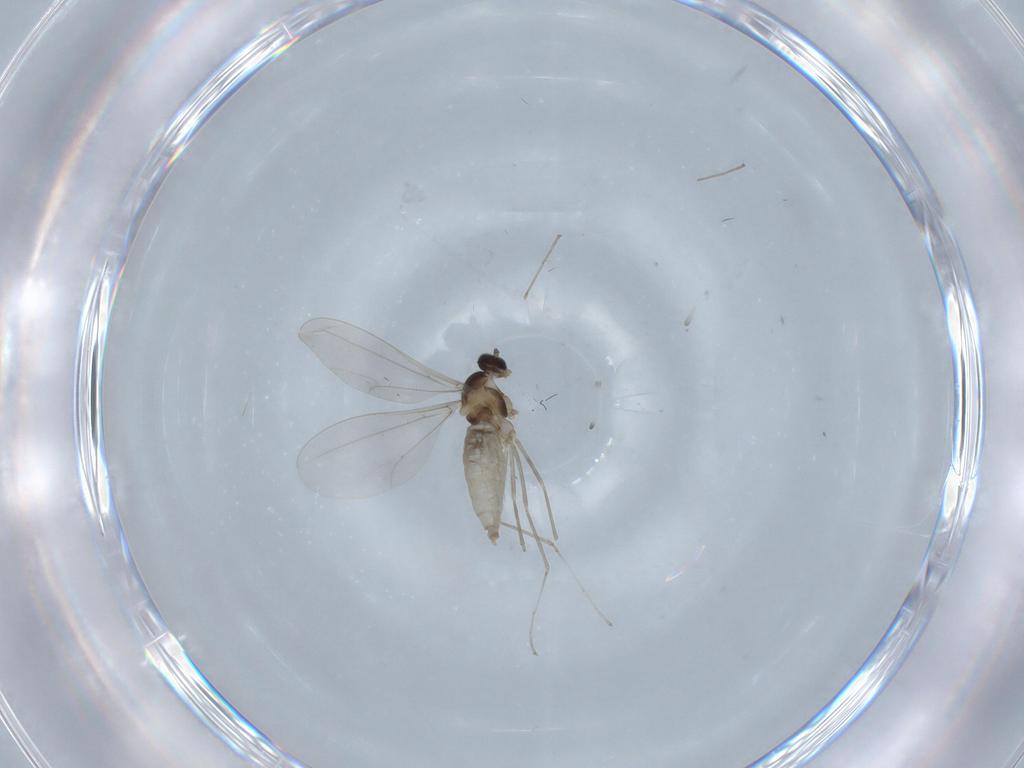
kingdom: Animalia
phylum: Arthropoda
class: Insecta
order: Diptera
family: Cecidomyiidae
